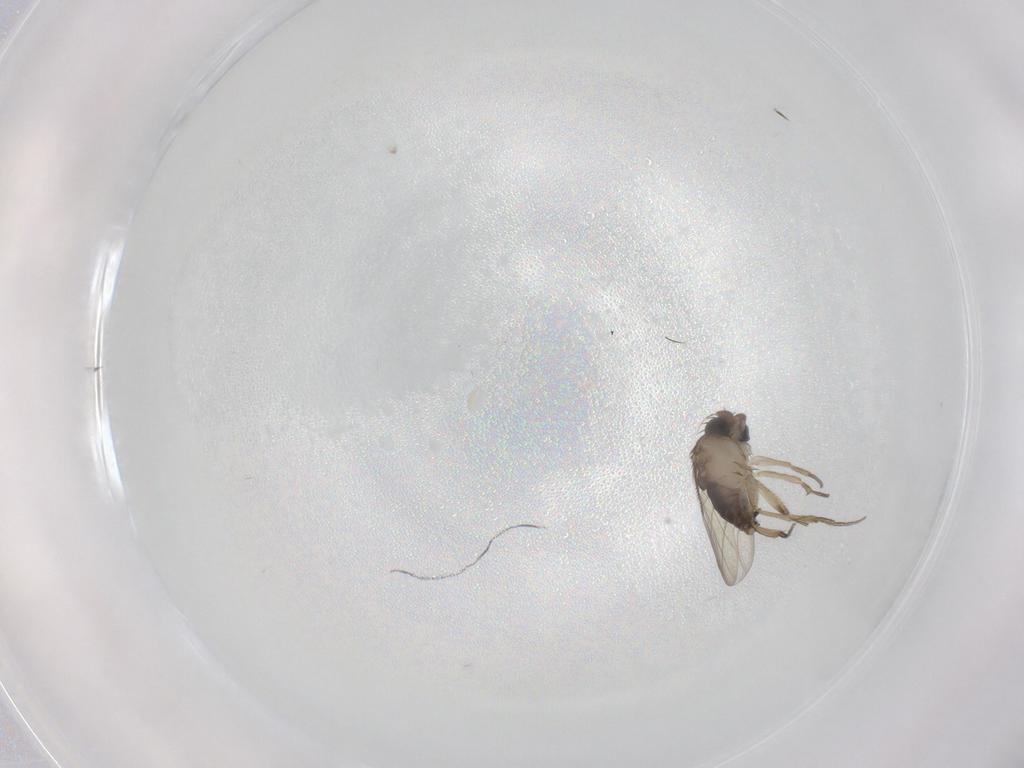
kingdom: Animalia
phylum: Arthropoda
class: Insecta
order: Diptera
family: Phoridae
